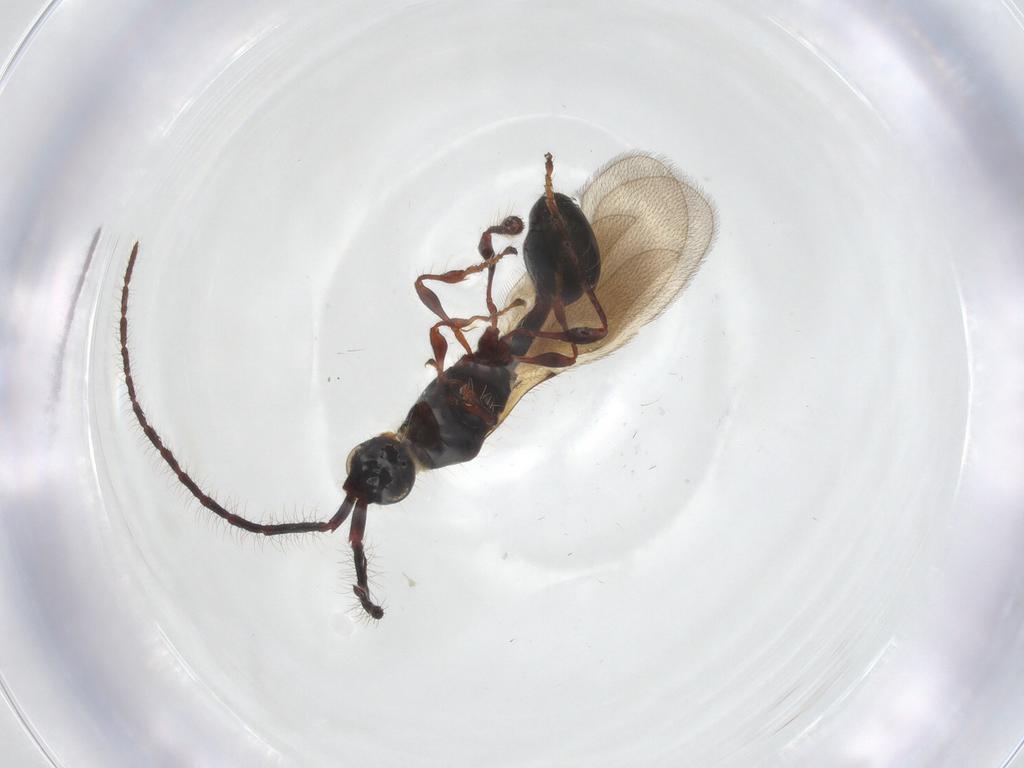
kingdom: Animalia
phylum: Arthropoda
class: Insecta
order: Hymenoptera
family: Diapriidae
